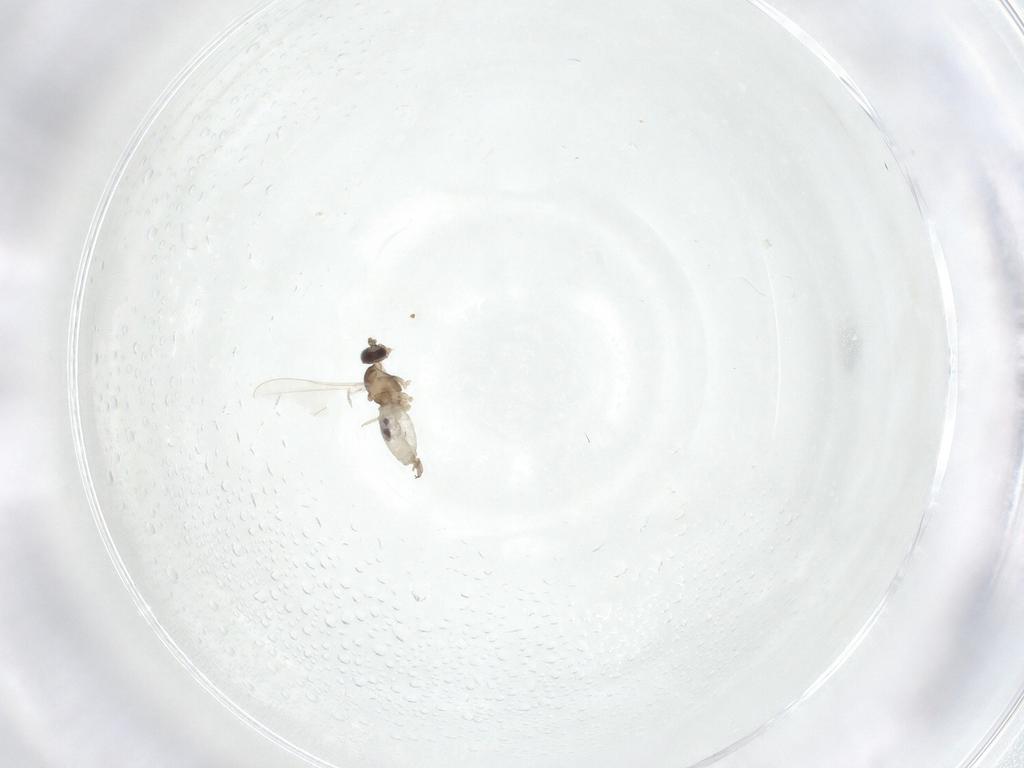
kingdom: Animalia
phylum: Arthropoda
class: Insecta
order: Diptera
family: Cecidomyiidae
